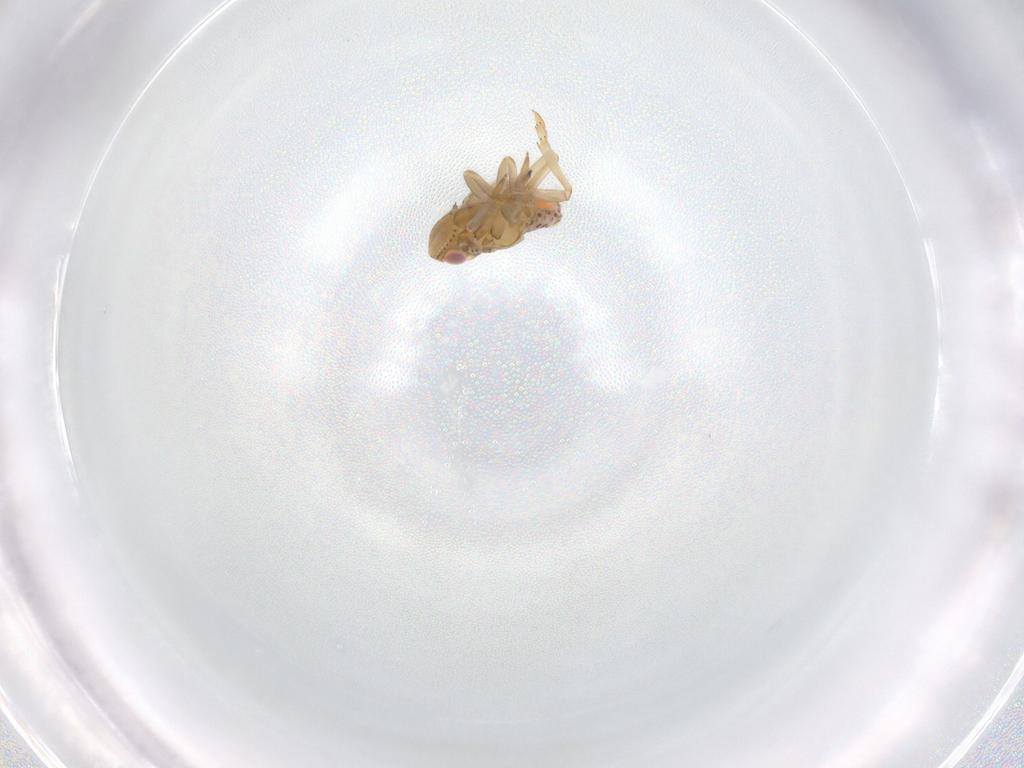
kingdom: Animalia
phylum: Arthropoda
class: Insecta
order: Hemiptera
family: Tropiduchidae
